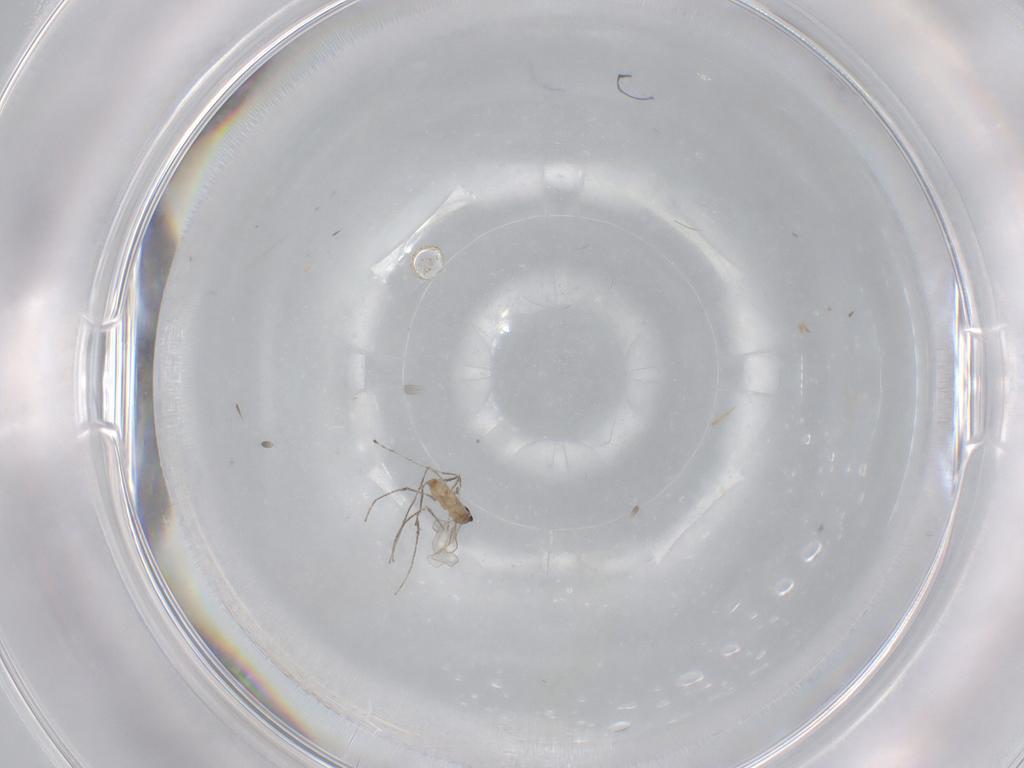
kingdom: Animalia
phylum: Arthropoda
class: Insecta
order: Diptera
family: Cecidomyiidae
